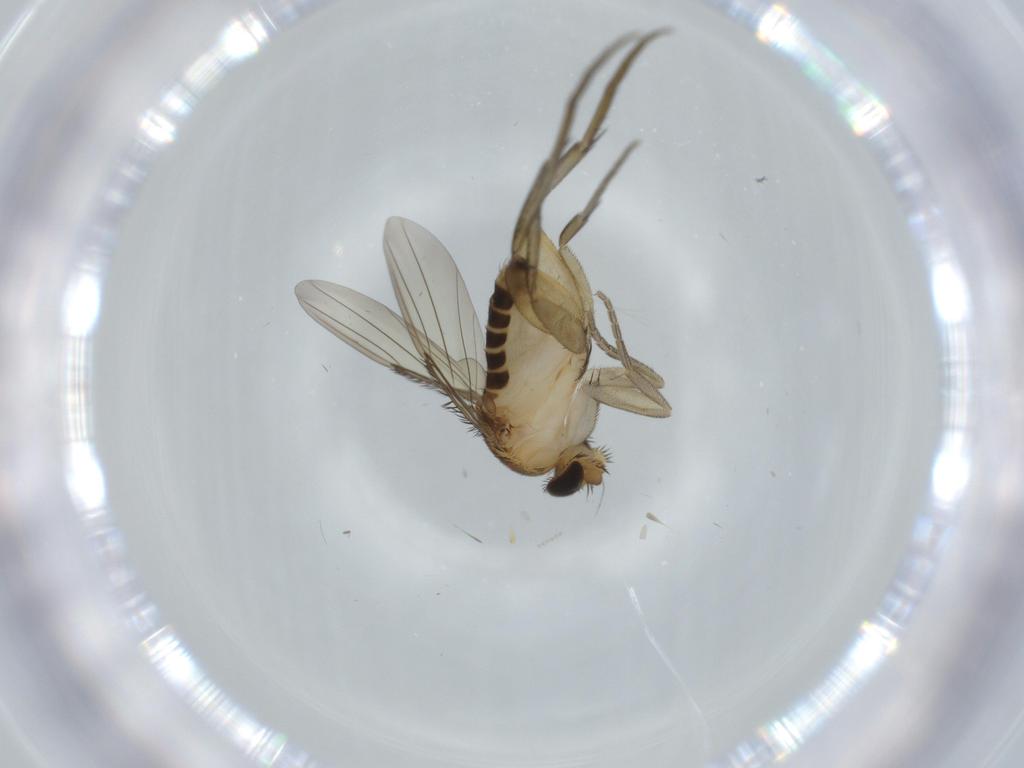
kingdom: Animalia
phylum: Arthropoda
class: Insecta
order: Diptera
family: Phoridae
